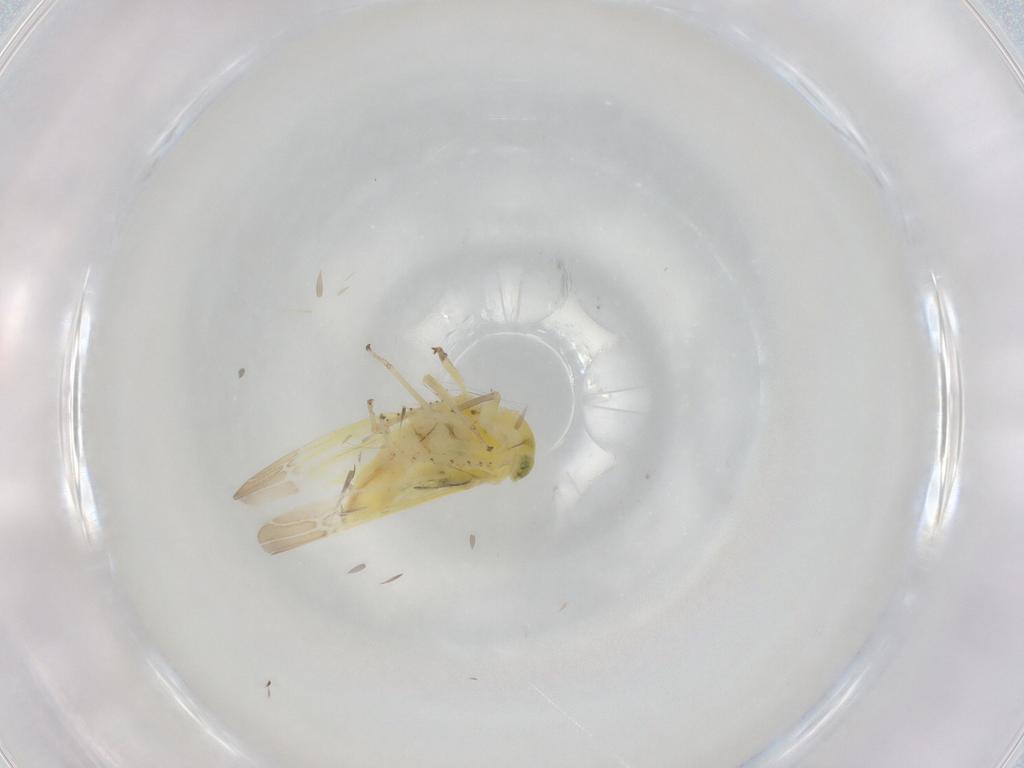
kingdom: Animalia
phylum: Arthropoda
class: Insecta
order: Hemiptera
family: Cicadellidae
